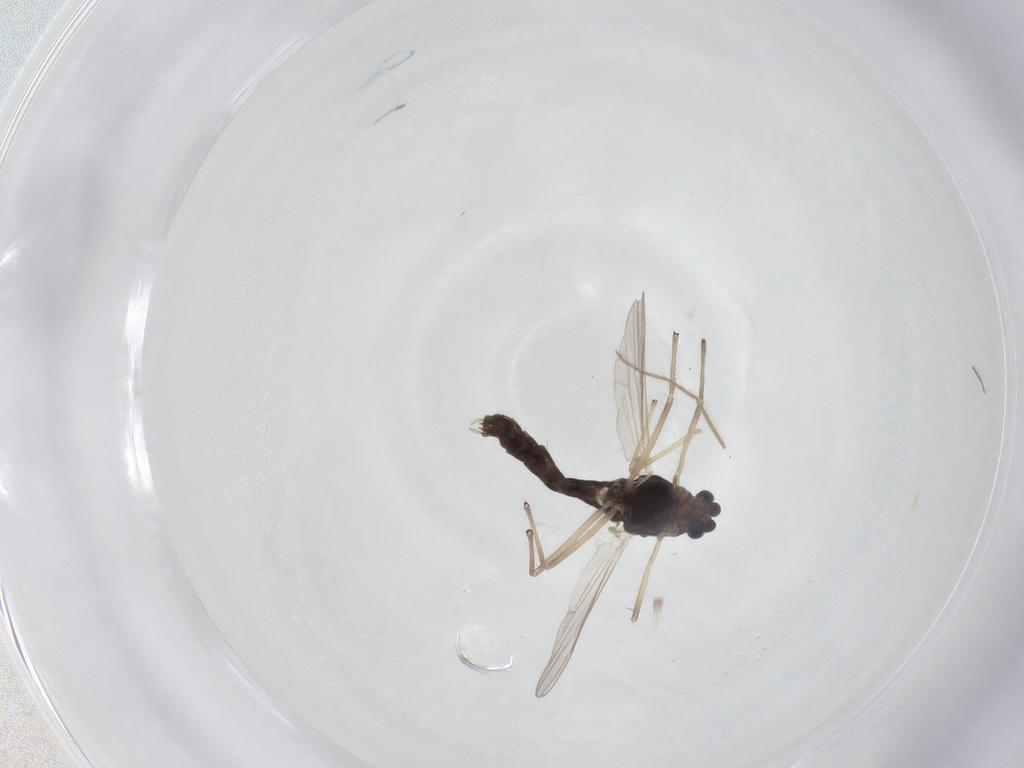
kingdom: Animalia
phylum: Arthropoda
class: Insecta
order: Diptera
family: Chironomidae
